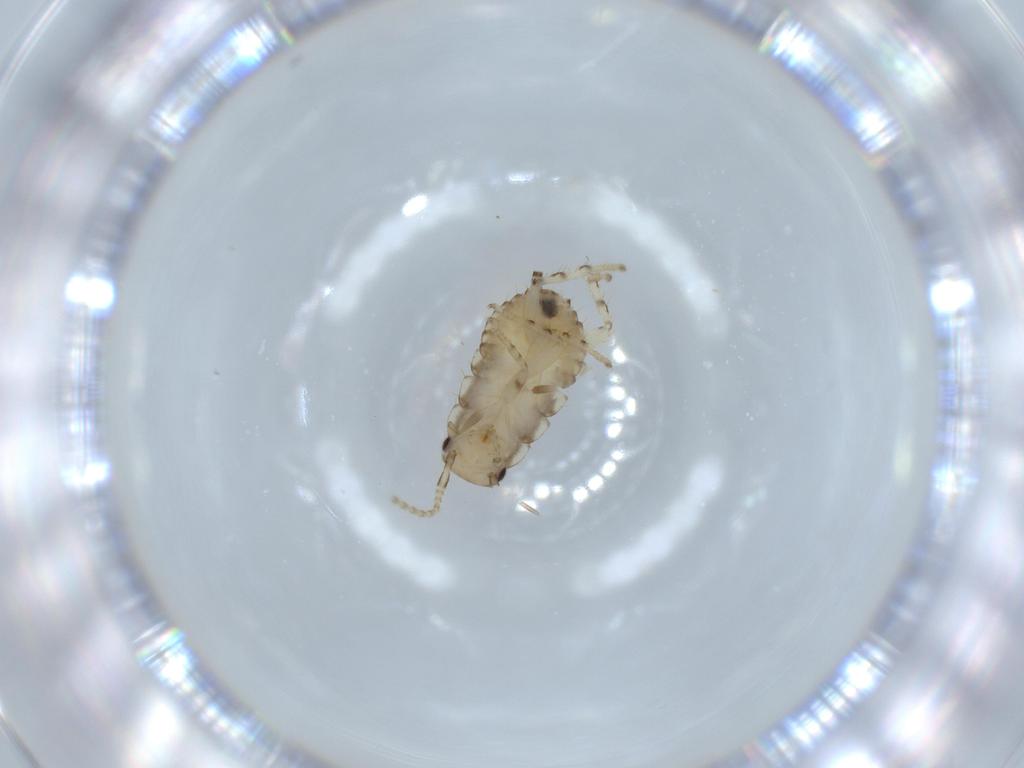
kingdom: Animalia
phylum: Arthropoda
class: Insecta
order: Blattodea
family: Ectobiidae
